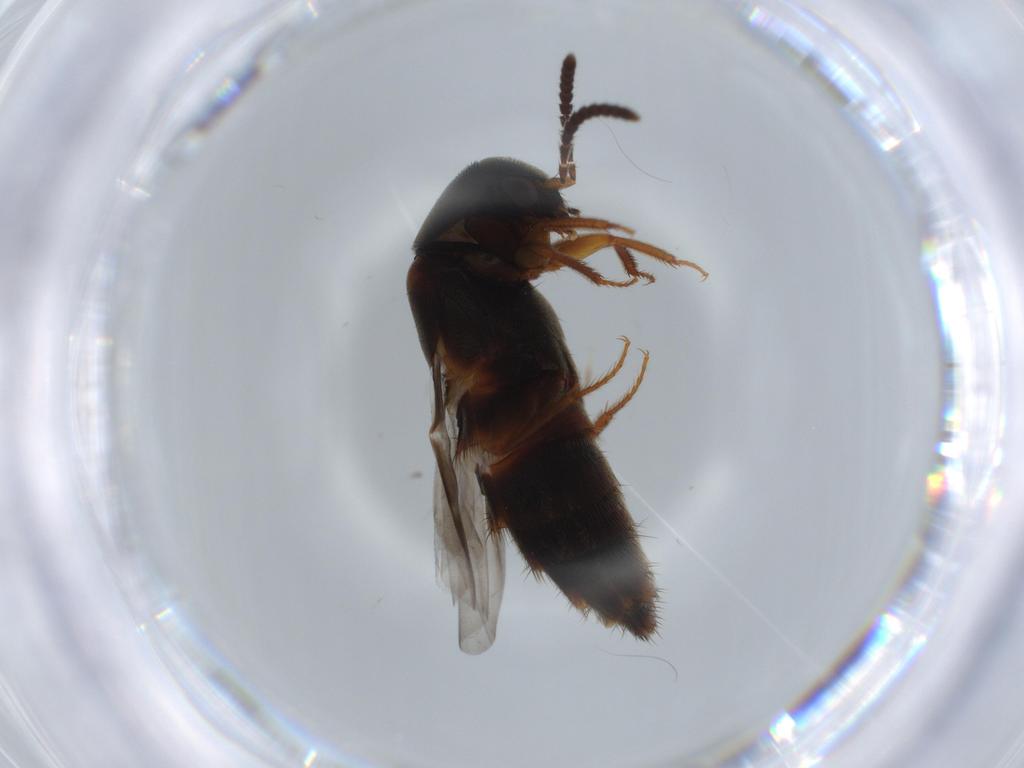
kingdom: Animalia
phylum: Arthropoda
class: Insecta
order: Coleoptera
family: Staphylinidae
